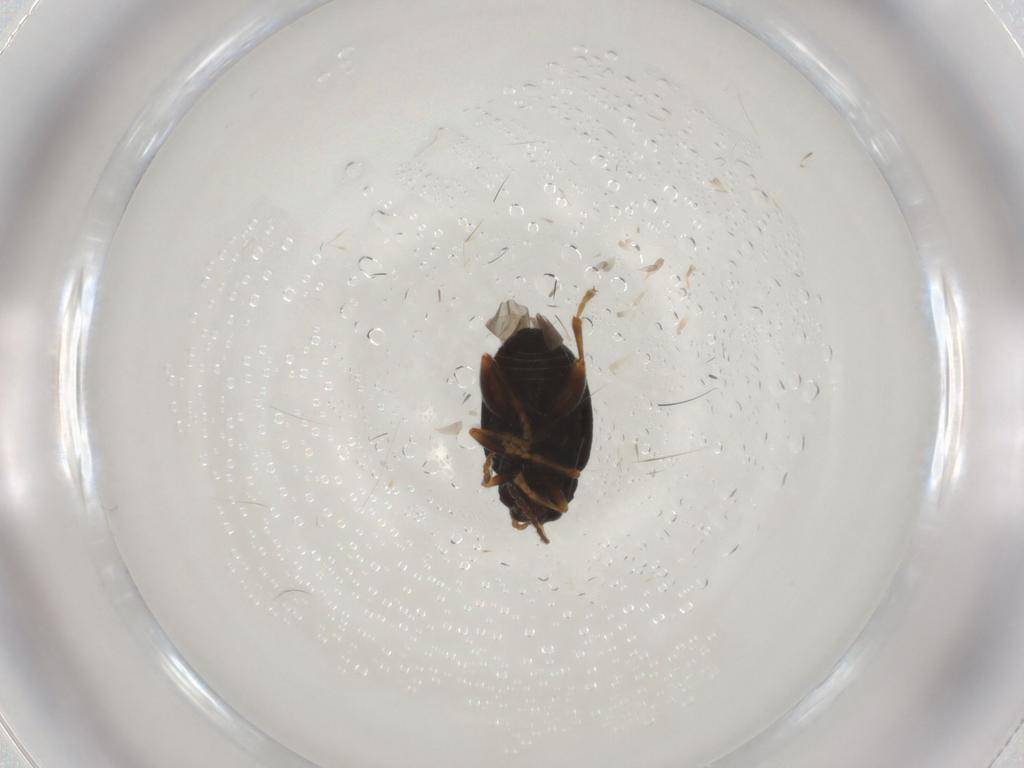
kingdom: Animalia
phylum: Arthropoda
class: Insecta
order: Coleoptera
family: Chrysomelidae
